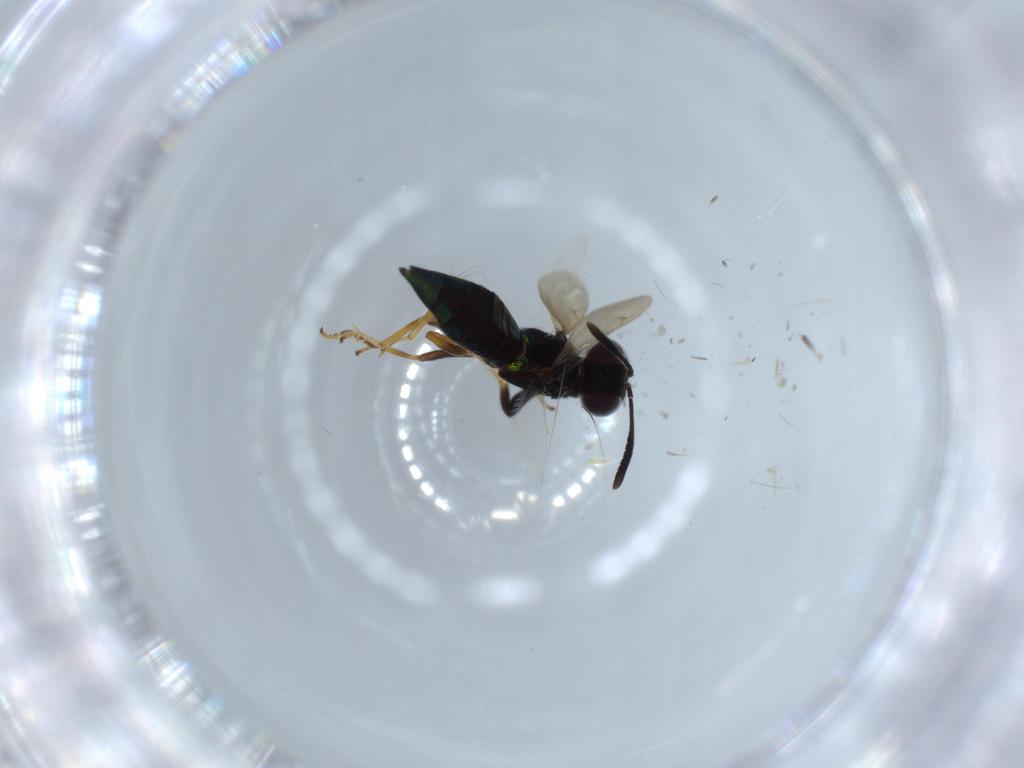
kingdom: Animalia
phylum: Arthropoda
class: Insecta
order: Hymenoptera
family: Eupelmidae
